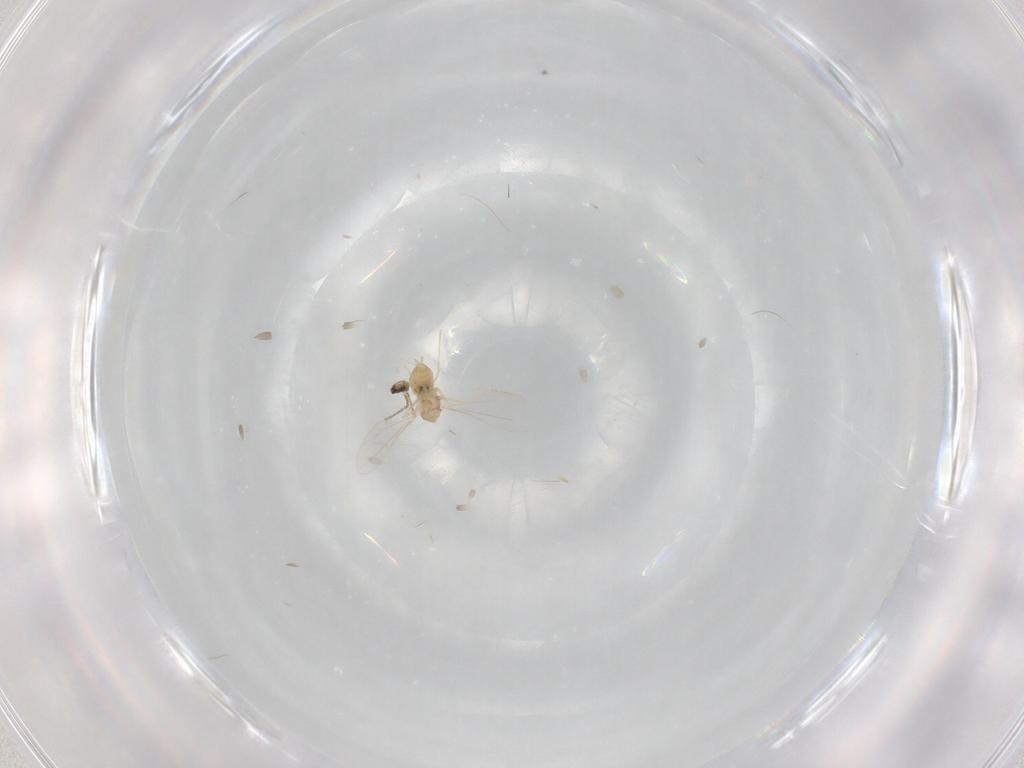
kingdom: Animalia
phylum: Arthropoda
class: Insecta
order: Diptera
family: Cecidomyiidae
